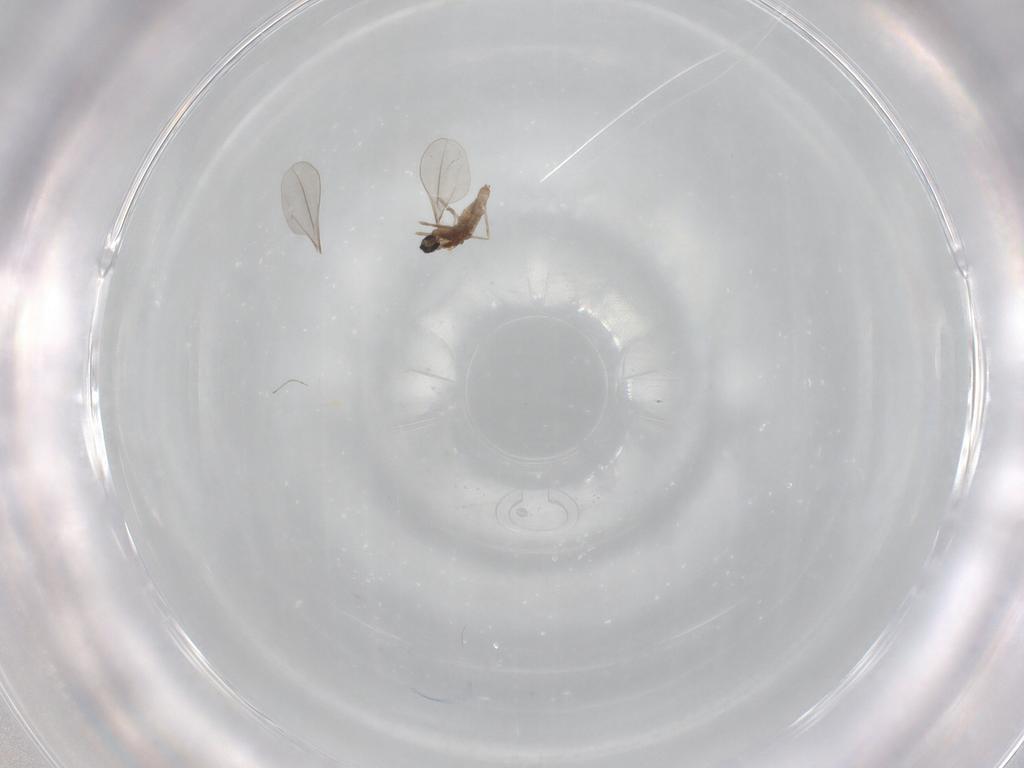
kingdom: Animalia
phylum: Arthropoda
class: Insecta
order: Diptera
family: Cecidomyiidae
